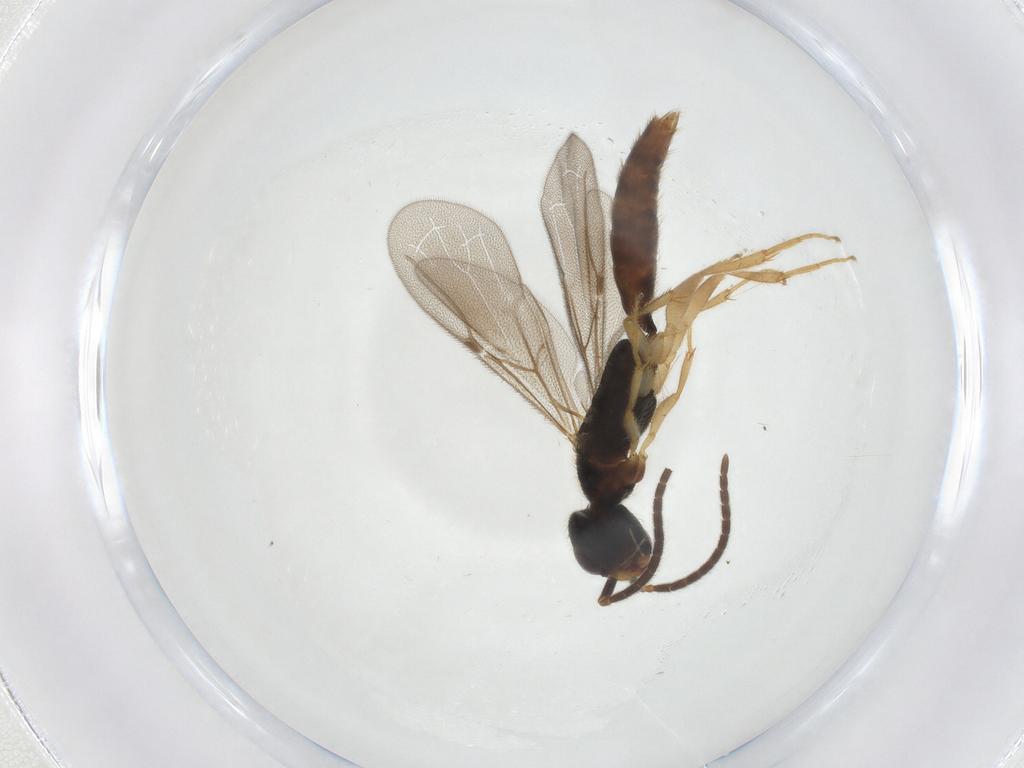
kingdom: Animalia
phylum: Arthropoda
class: Insecta
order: Hymenoptera
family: Bethylidae
